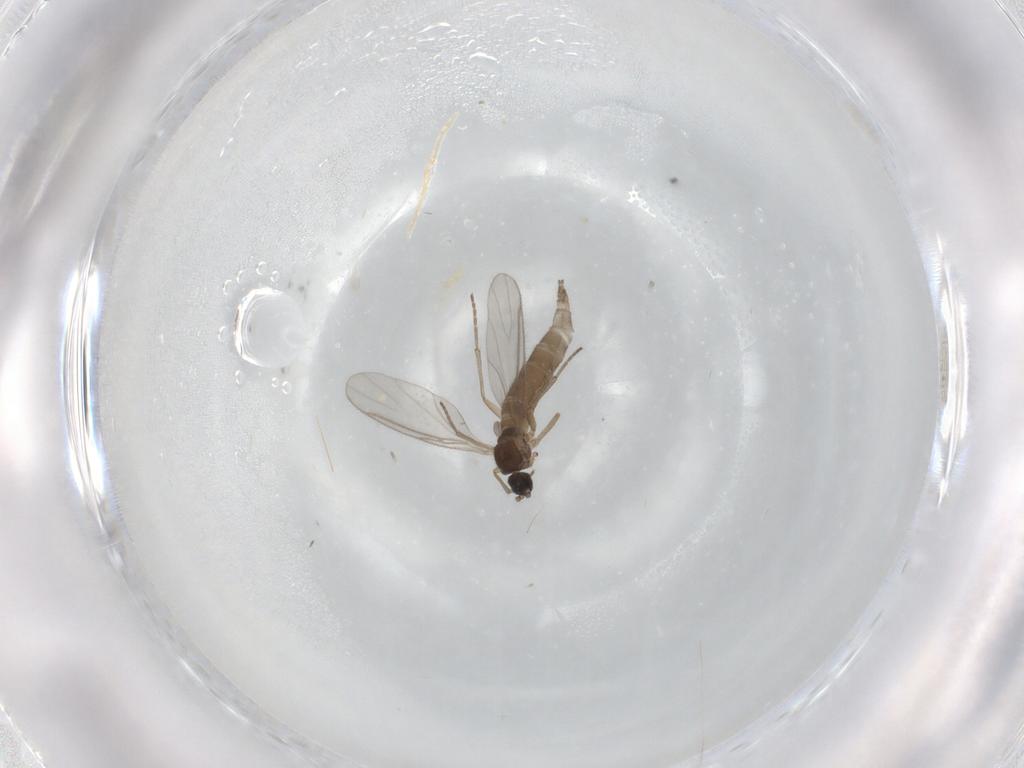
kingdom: Animalia
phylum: Arthropoda
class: Insecta
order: Diptera
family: Sciaridae
